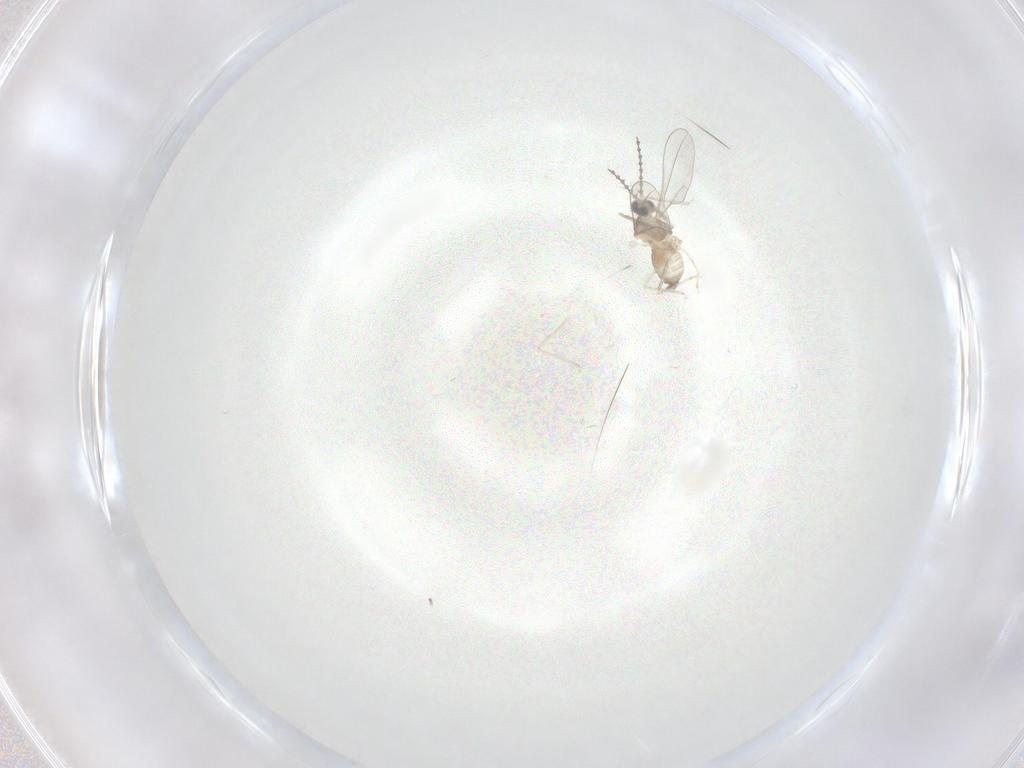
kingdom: Animalia
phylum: Arthropoda
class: Insecta
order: Diptera
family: Cecidomyiidae
